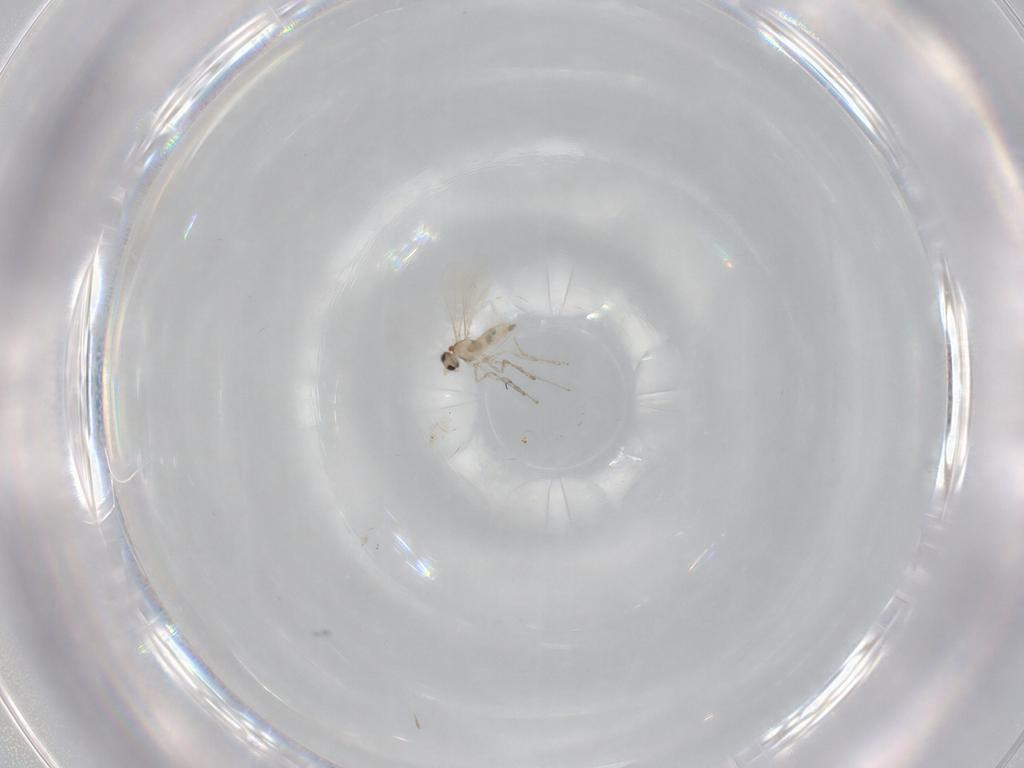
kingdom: Animalia
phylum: Arthropoda
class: Insecta
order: Diptera
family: Cecidomyiidae
